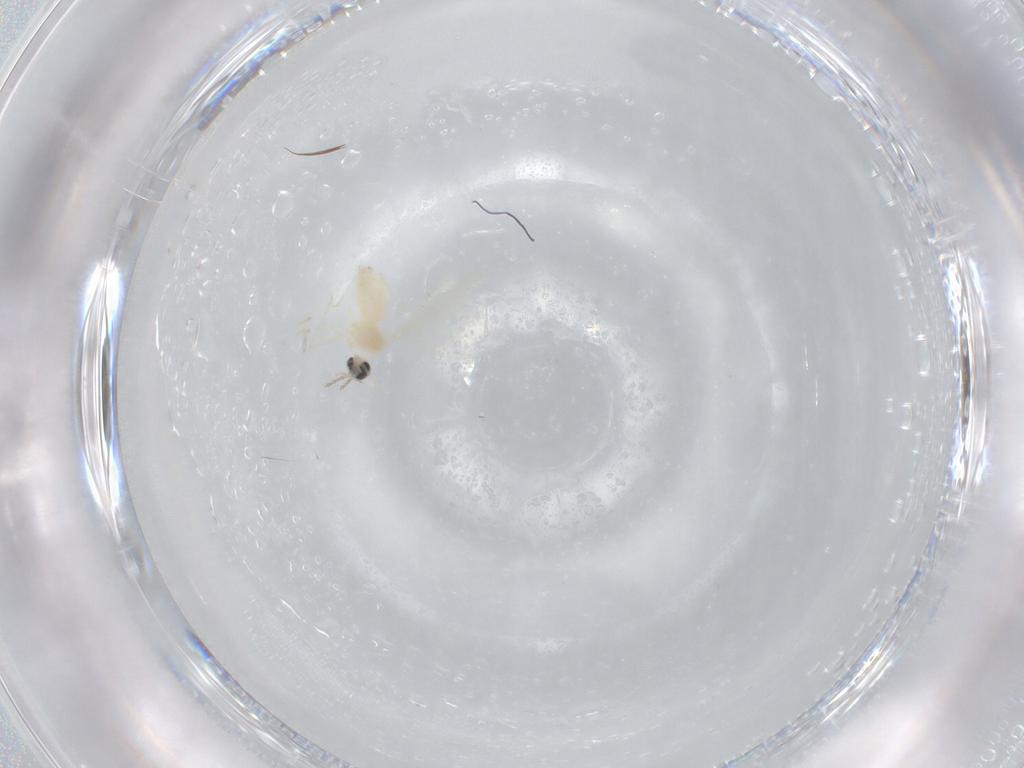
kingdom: Animalia
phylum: Arthropoda
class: Insecta
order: Diptera
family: Cecidomyiidae
